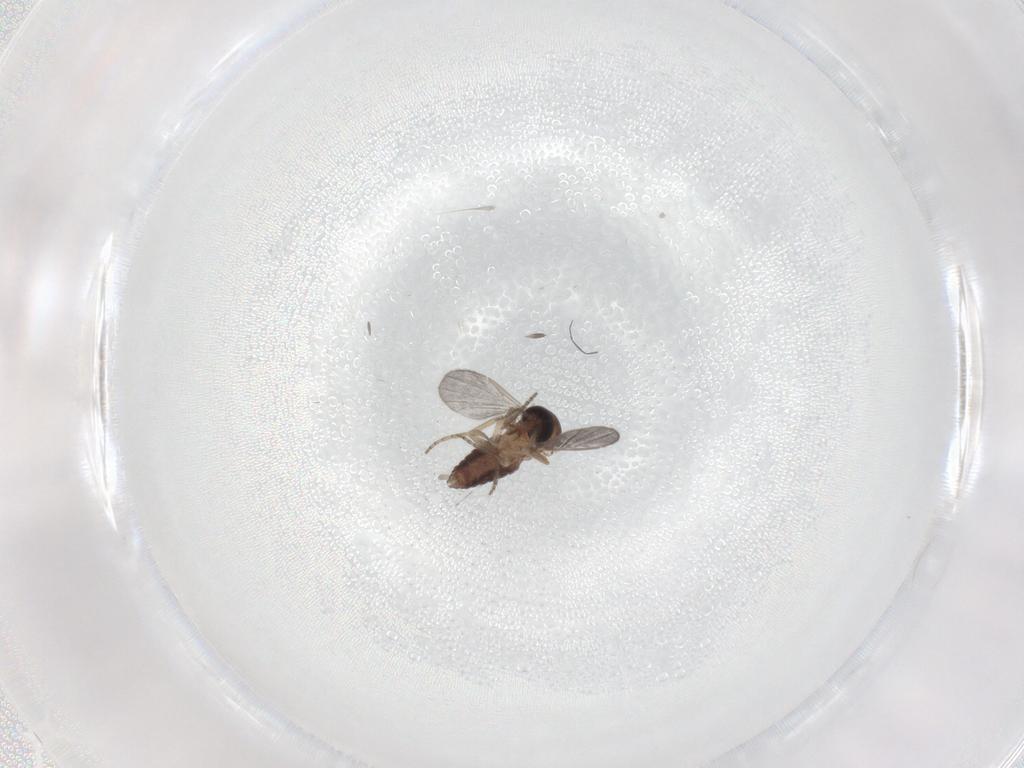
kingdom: Animalia
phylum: Arthropoda
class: Insecta
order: Diptera
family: Ceratopogonidae
